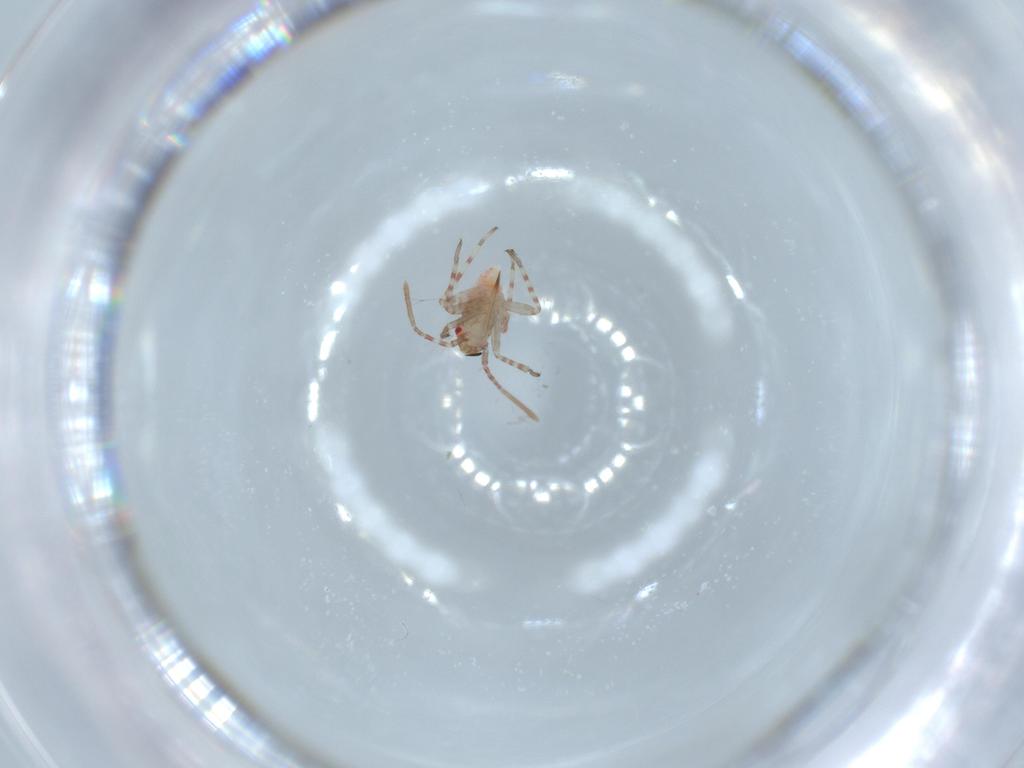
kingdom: Animalia
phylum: Arthropoda
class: Insecta
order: Hemiptera
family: Miridae
